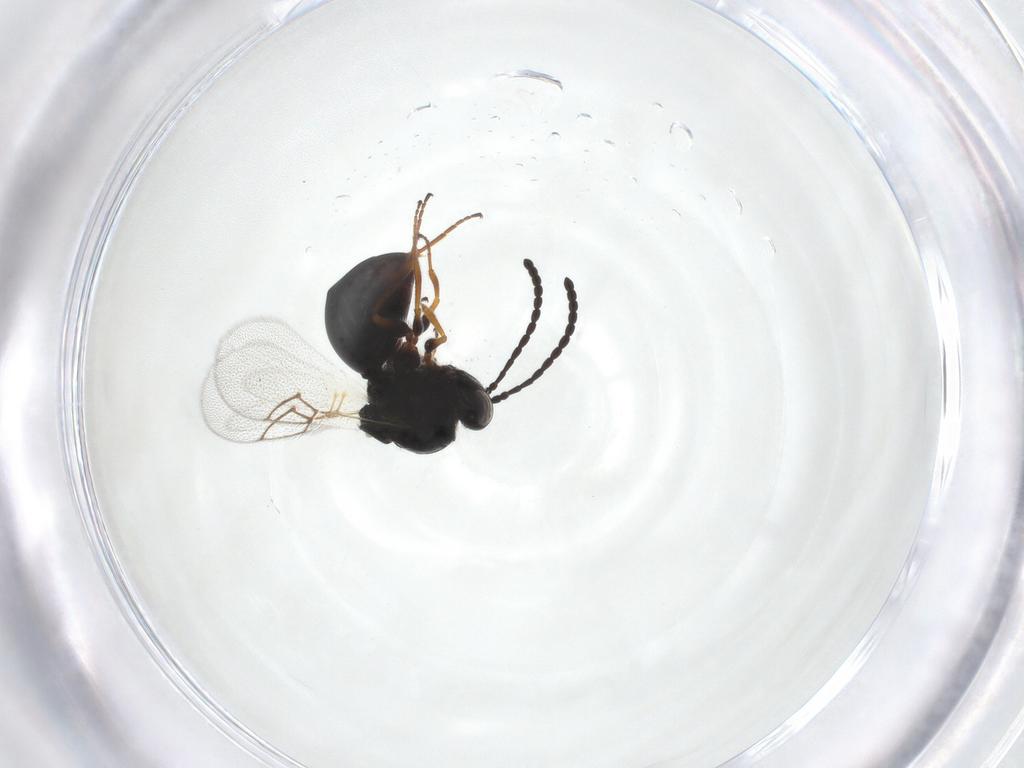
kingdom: Animalia
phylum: Arthropoda
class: Insecta
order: Hymenoptera
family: Figitidae
